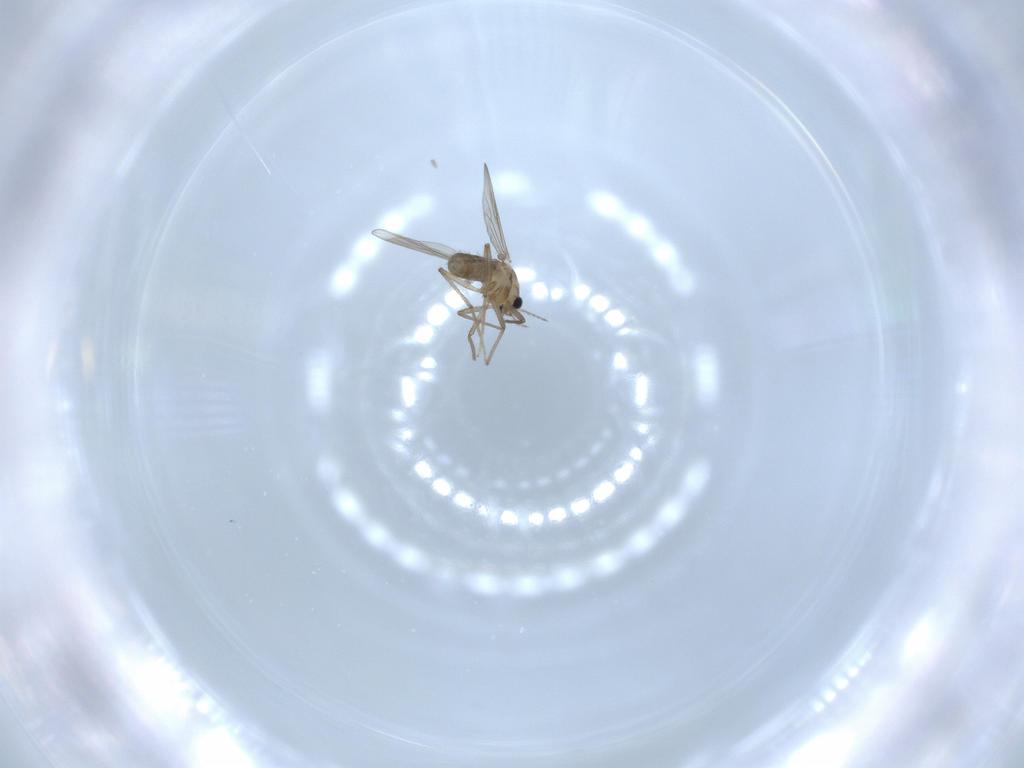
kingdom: Animalia
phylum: Arthropoda
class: Insecta
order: Diptera
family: Chironomidae
